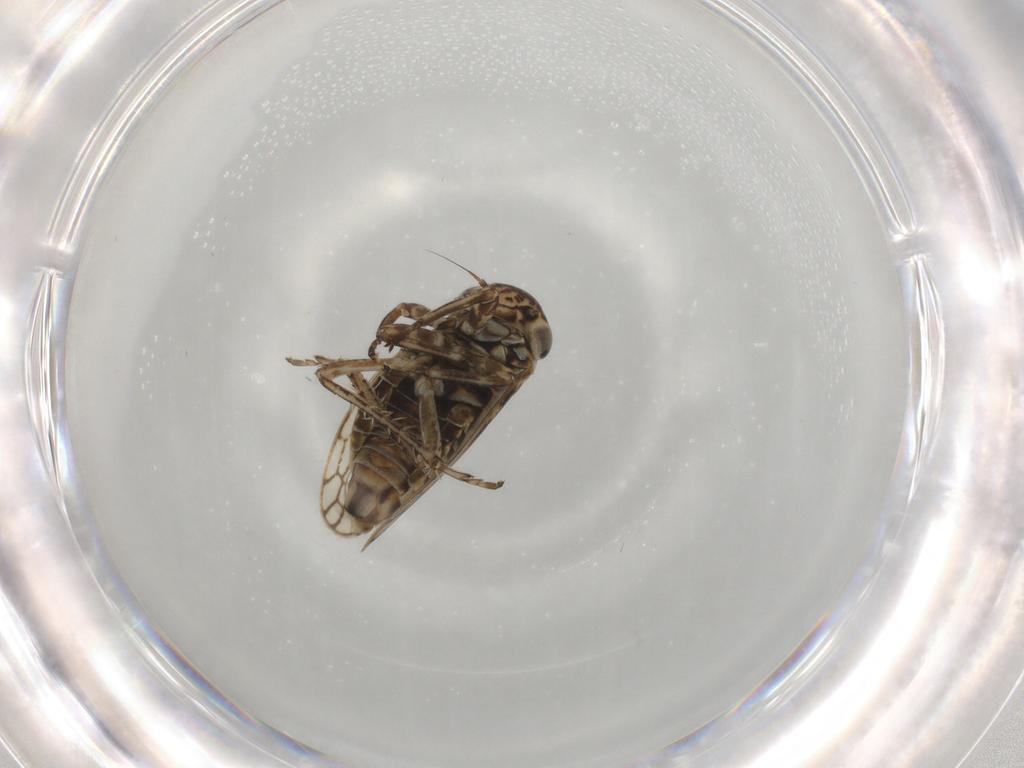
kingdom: Animalia
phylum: Arthropoda
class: Insecta
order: Hemiptera
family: Cicadellidae
